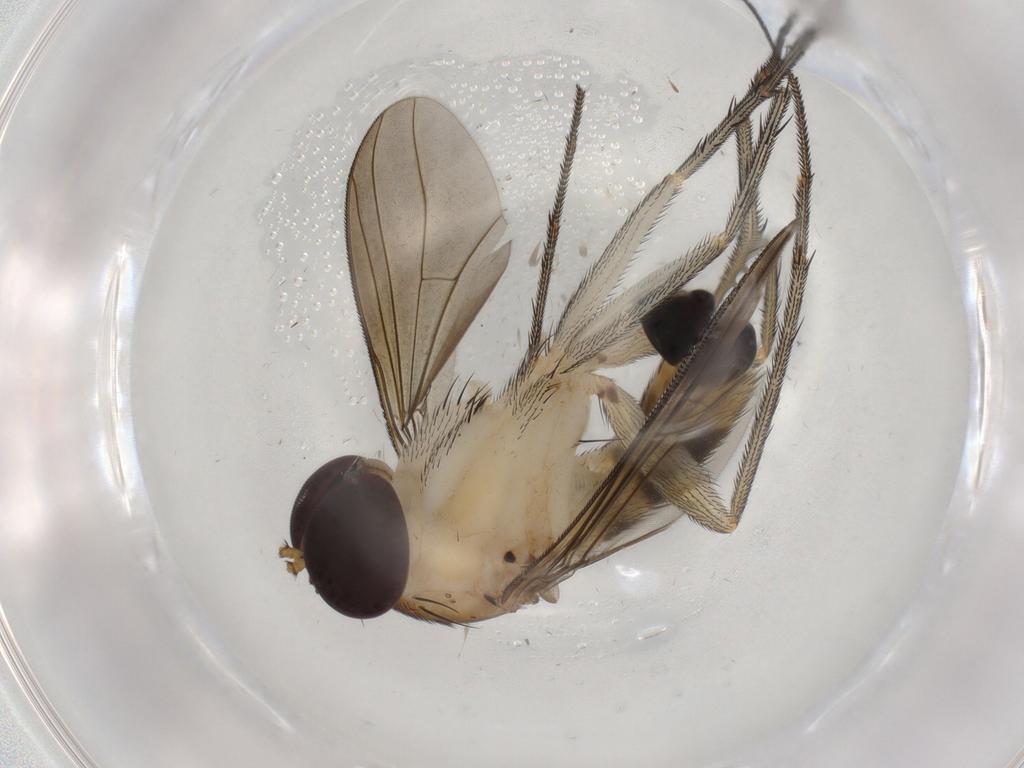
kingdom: Animalia
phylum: Arthropoda
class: Insecta
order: Diptera
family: Dolichopodidae
